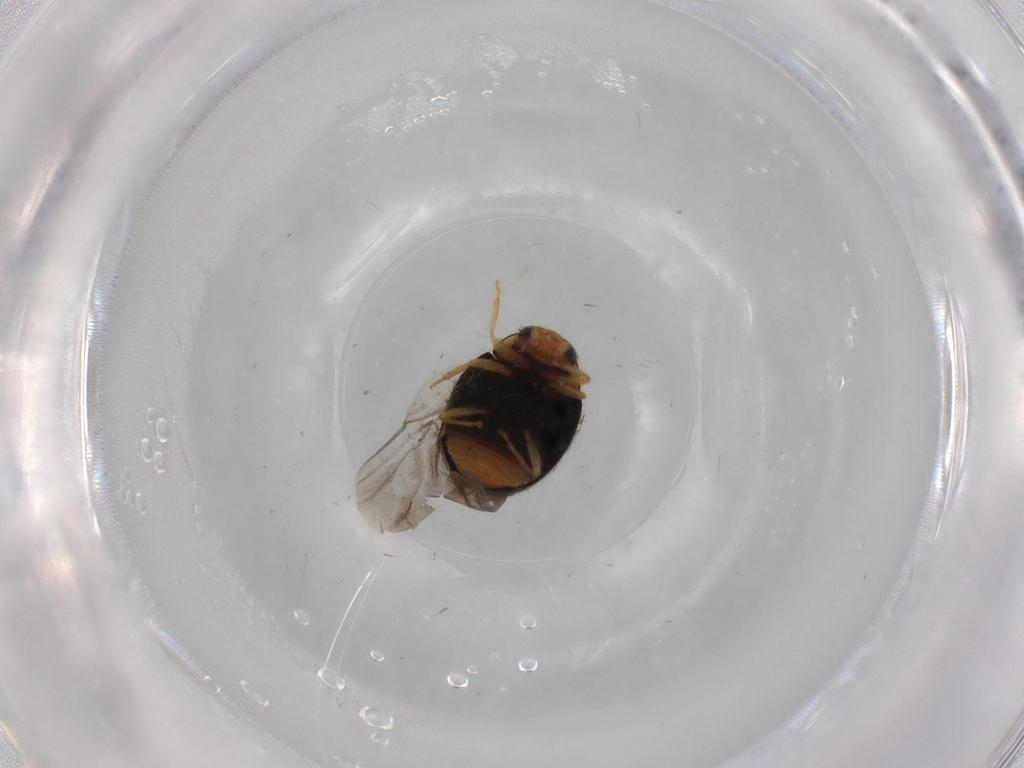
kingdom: Animalia
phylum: Arthropoda
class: Insecta
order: Coleoptera
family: Throscidae
